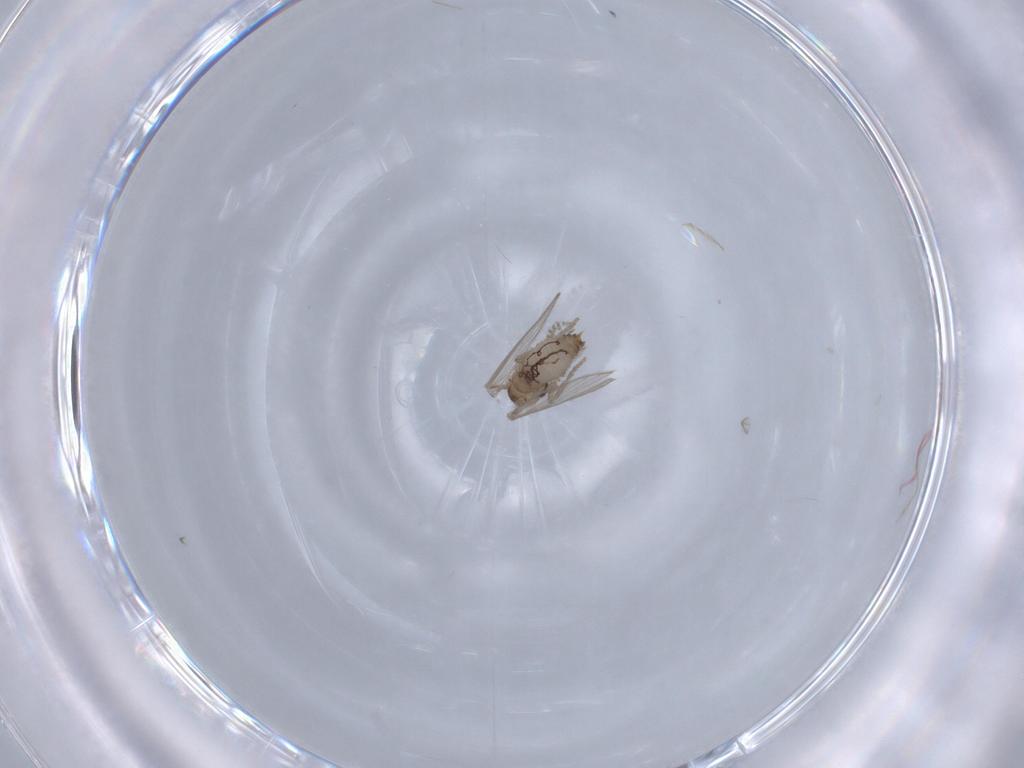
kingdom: Animalia
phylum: Arthropoda
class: Insecta
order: Diptera
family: Psychodidae
